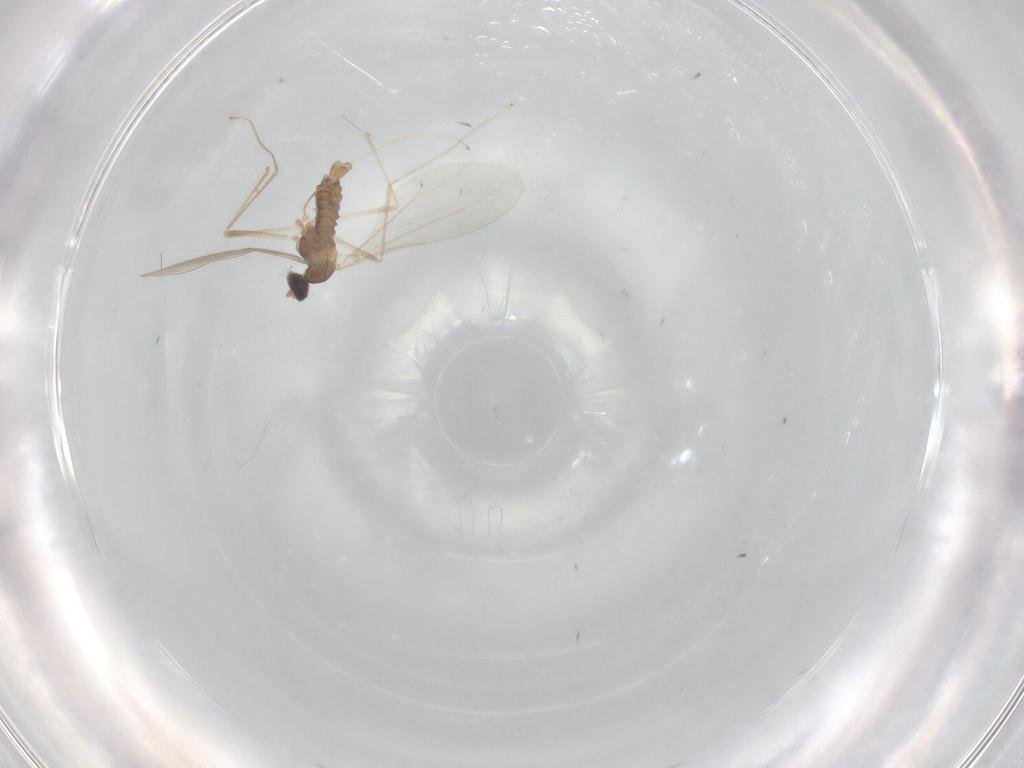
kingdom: Animalia
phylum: Arthropoda
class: Insecta
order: Diptera
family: Cecidomyiidae
